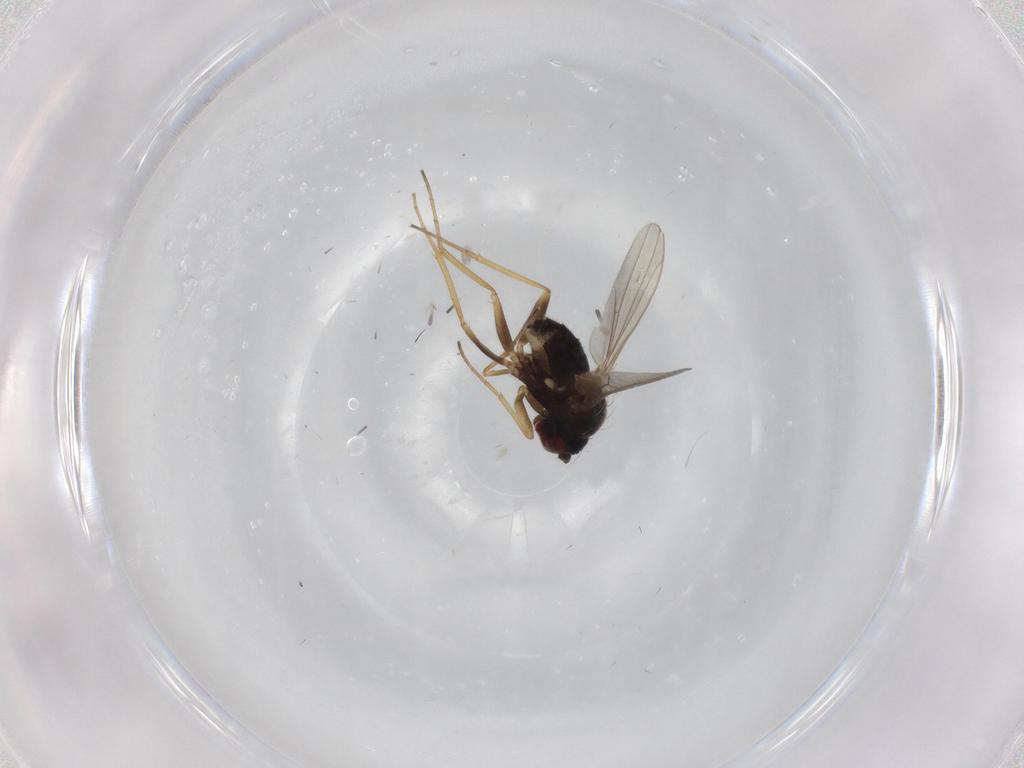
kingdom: Animalia
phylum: Arthropoda
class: Insecta
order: Diptera
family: Dolichopodidae
